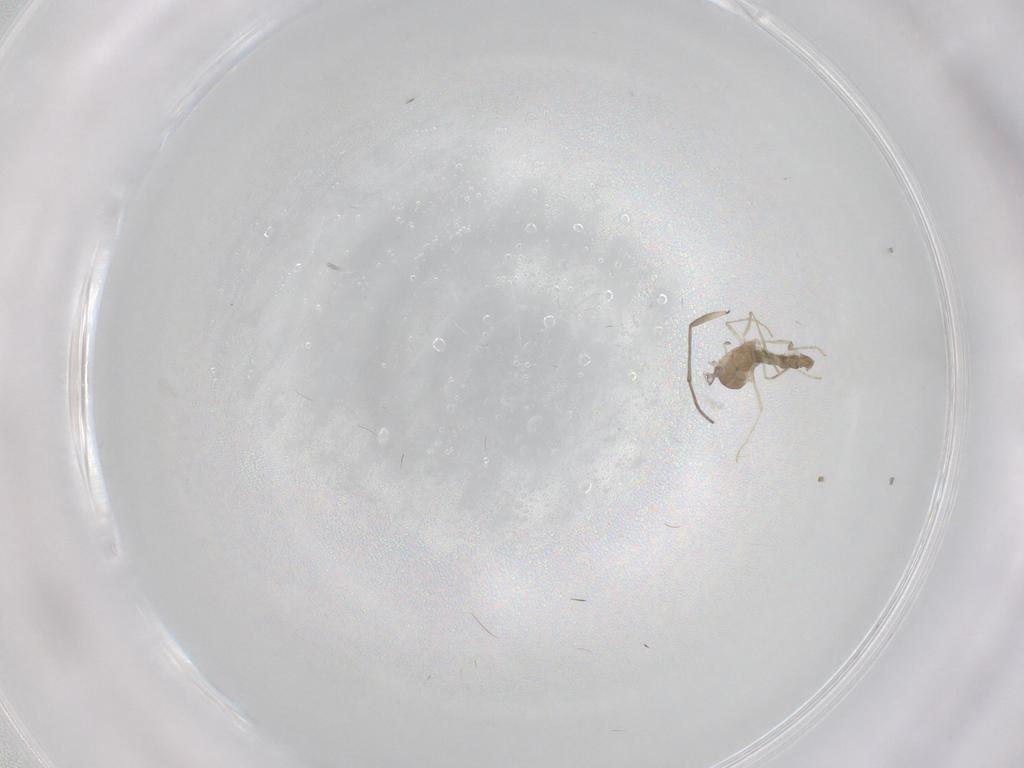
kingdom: Animalia
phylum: Arthropoda
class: Insecta
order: Diptera
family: Cecidomyiidae
